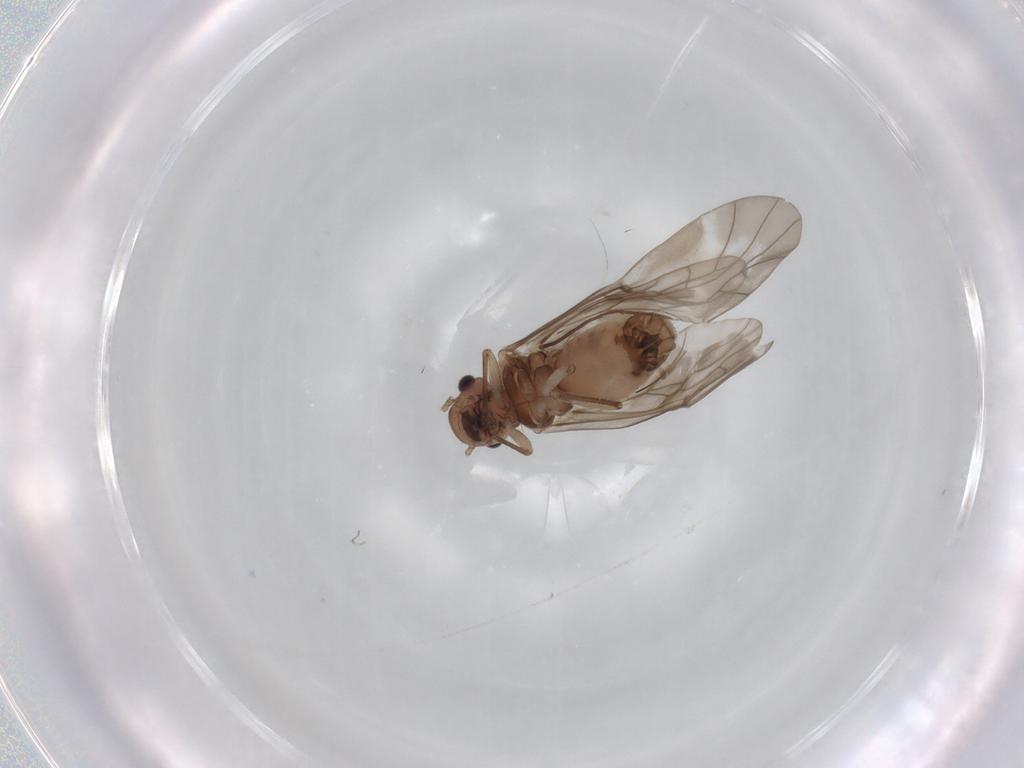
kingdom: Animalia
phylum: Arthropoda
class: Insecta
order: Psocodea
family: Peripsocidae
